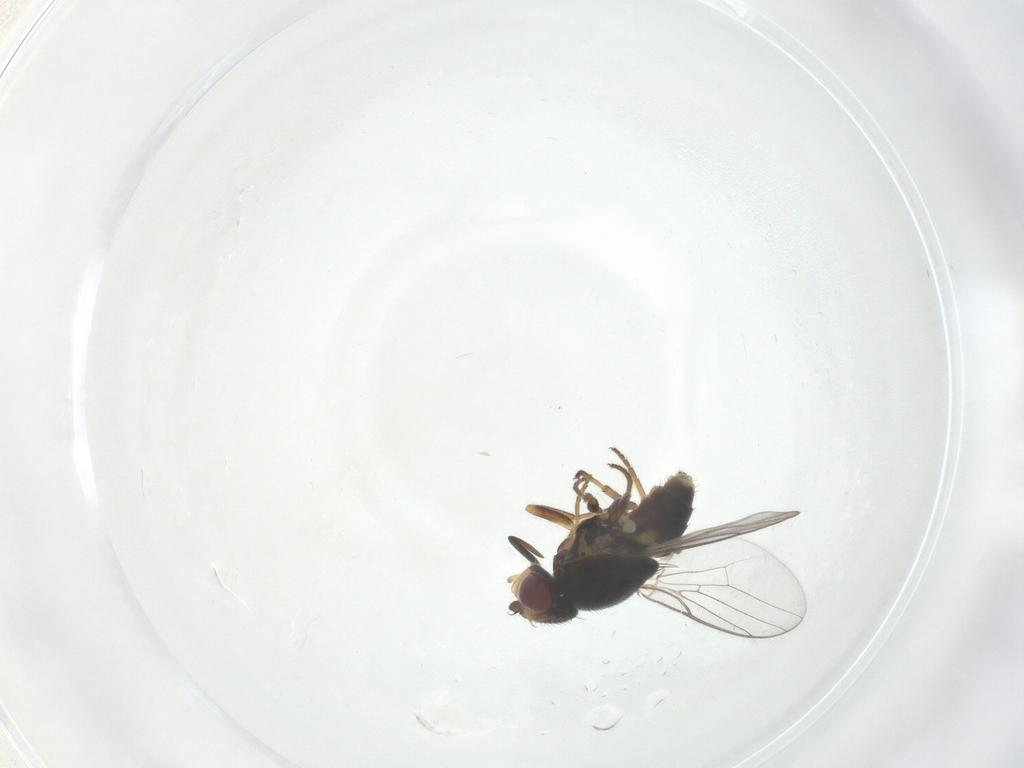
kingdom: Animalia
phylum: Arthropoda
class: Insecta
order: Diptera
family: Chloropidae
